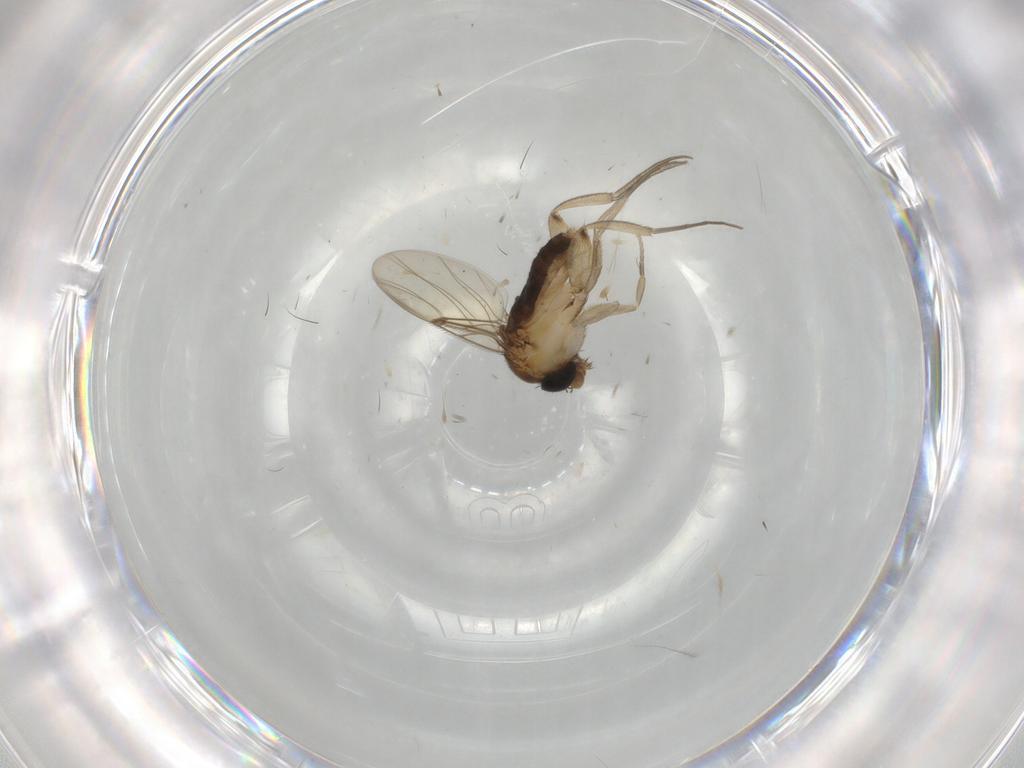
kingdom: Animalia
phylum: Arthropoda
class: Insecta
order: Diptera
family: Phoridae
